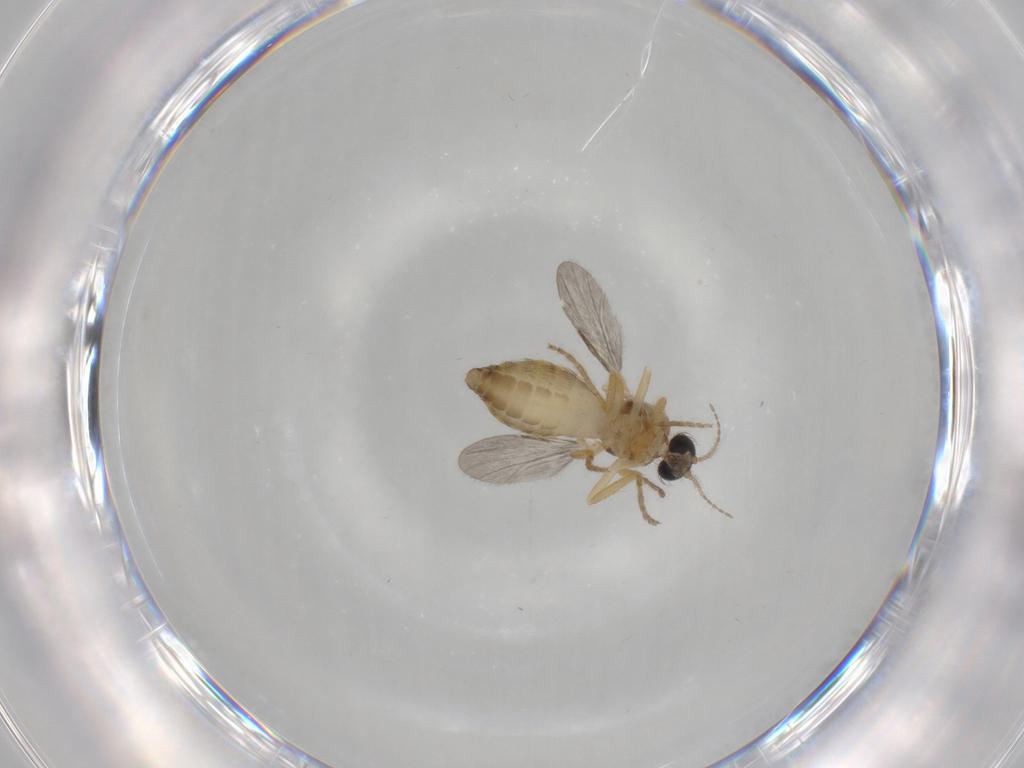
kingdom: Animalia
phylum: Arthropoda
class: Insecta
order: Diptera
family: Ceratopogonidae
